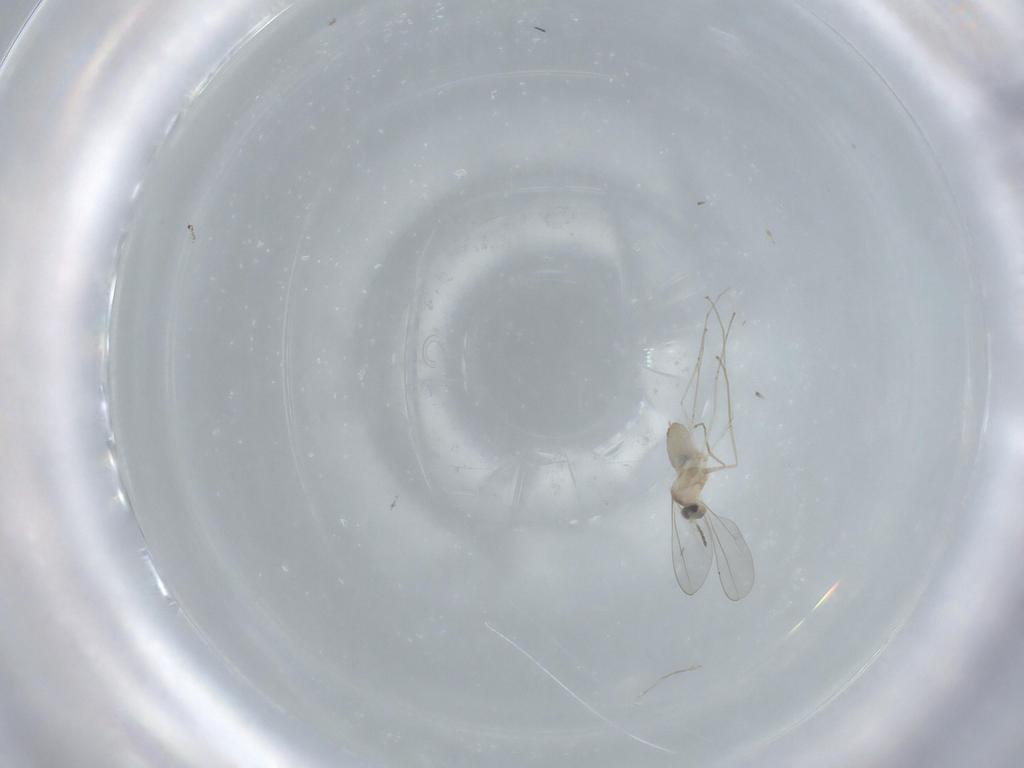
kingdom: Animalia
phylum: Arthropoda
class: Insecta
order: Diptera
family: Cecidomyiidae
